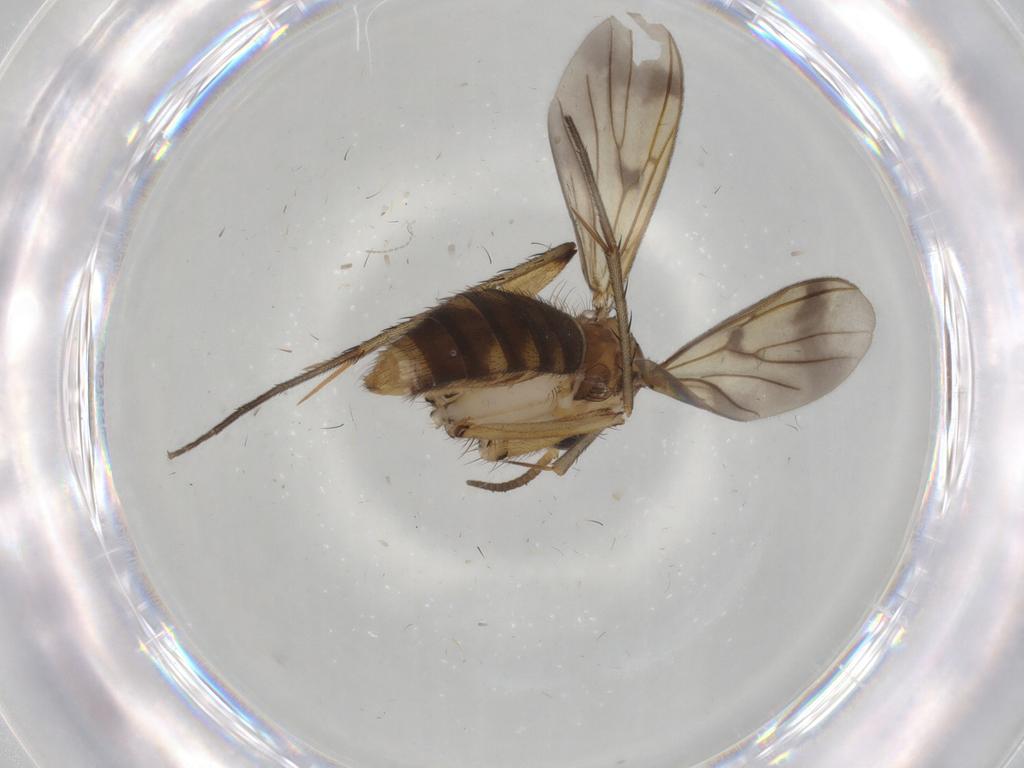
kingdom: Animalia
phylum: Arthropoda
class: Insecta
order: Diptera
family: Mycetophilidae
